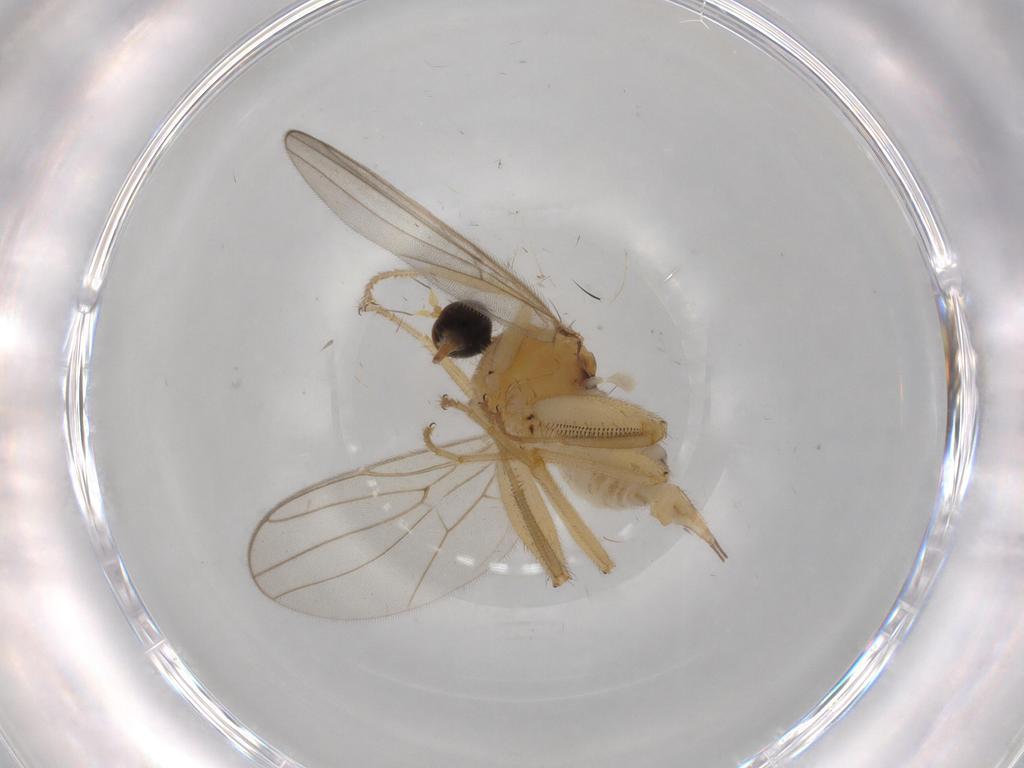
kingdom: Animalia
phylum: Arthropoda
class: Insecta
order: Diptera
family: Hybotidae
